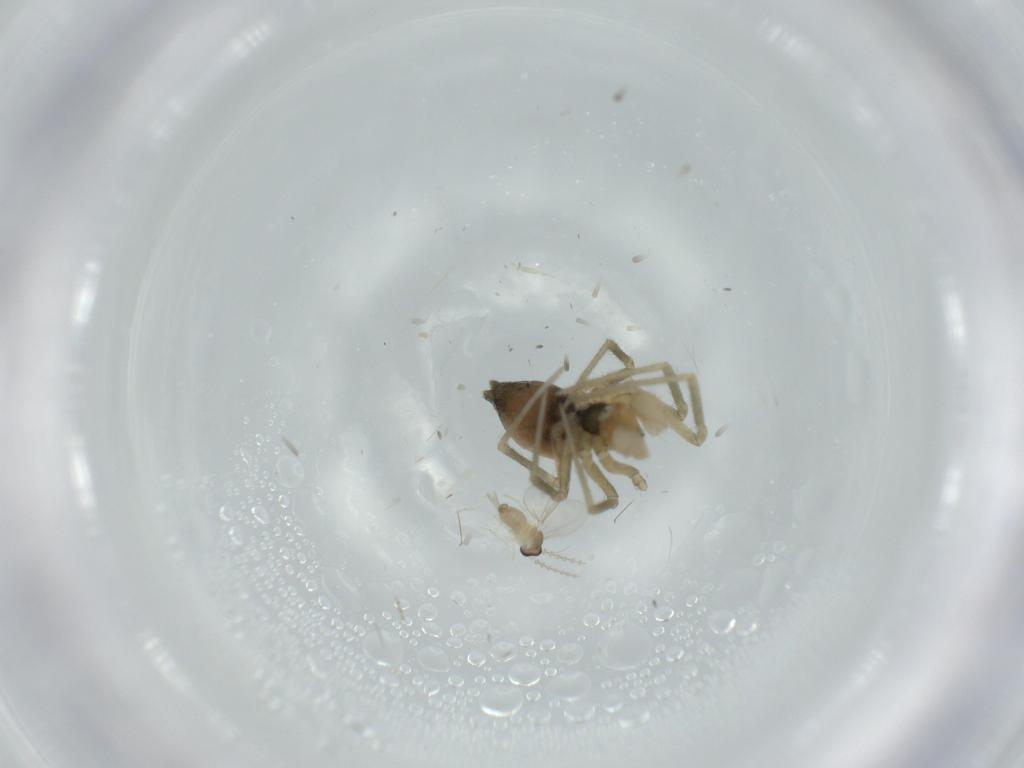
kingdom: Animalia
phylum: Arthropoda
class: Arachnida
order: Araneae
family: Linyphiidae
